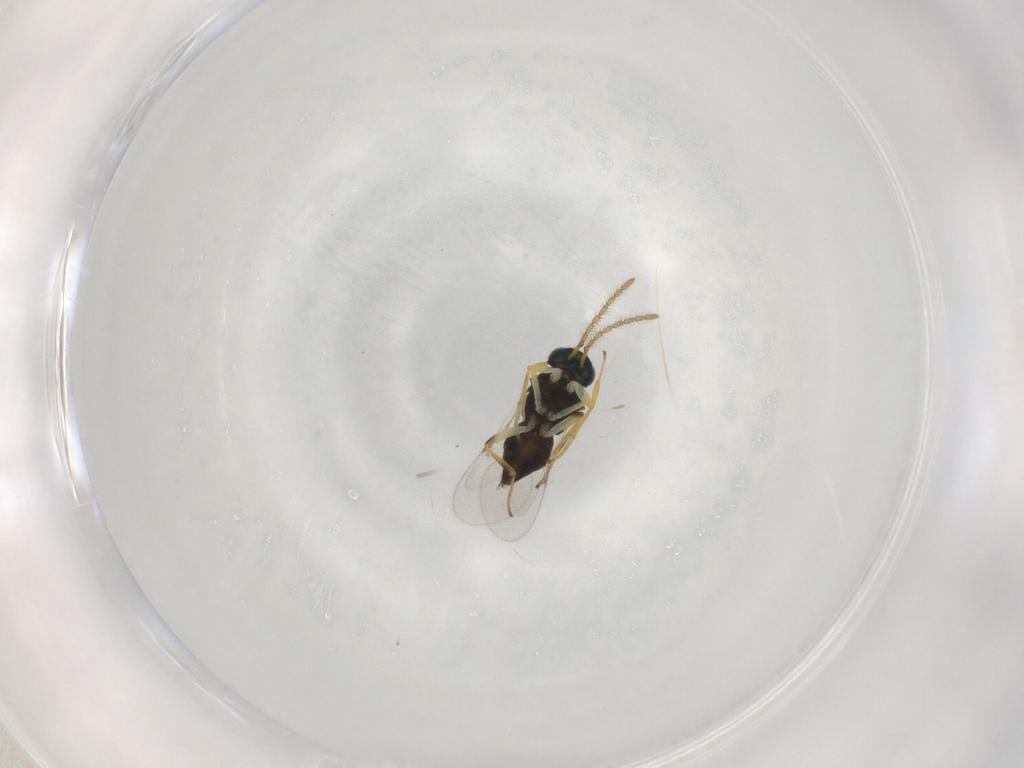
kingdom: Animalia
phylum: Arthropoda
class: Insecta
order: Hymenoptera
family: Encyrtidae
